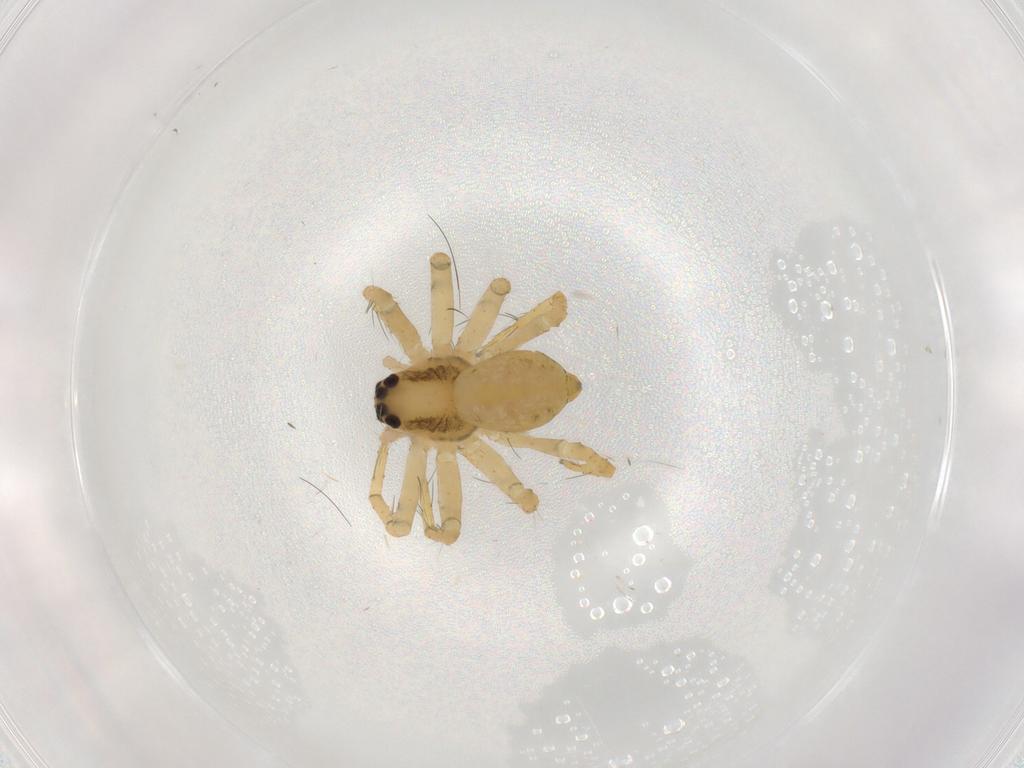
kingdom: Animalia
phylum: Arthropoda
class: Arachnida
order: Araneae
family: Pisauridae
